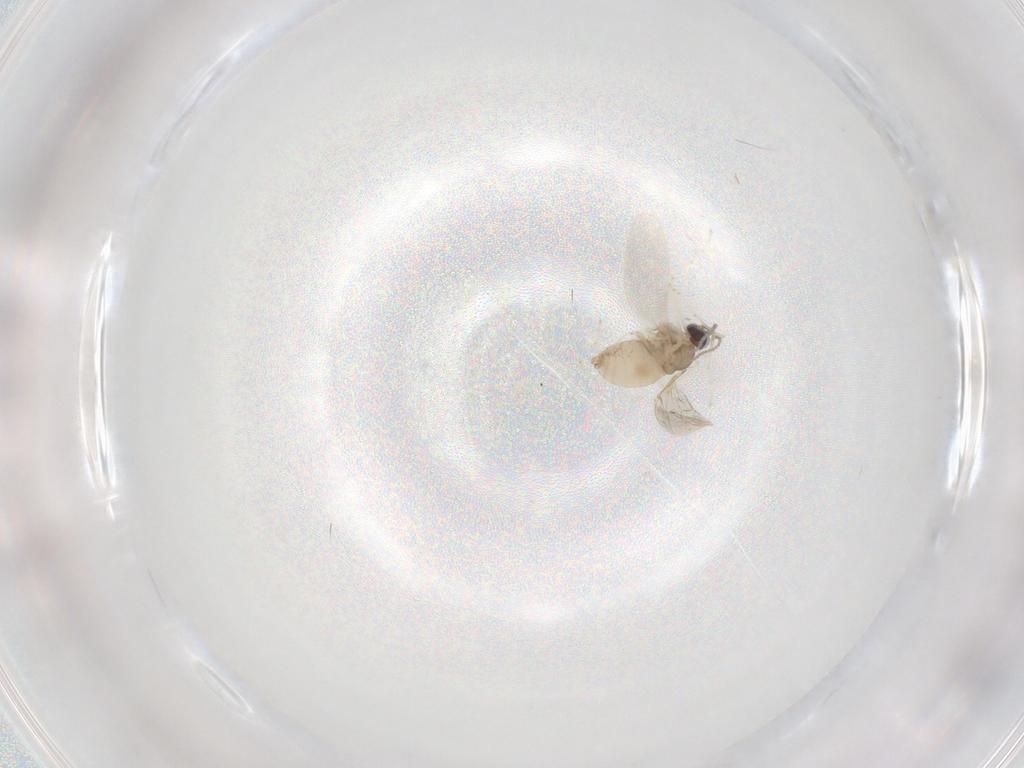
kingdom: Animalia
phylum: Arthropoda
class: Insecta
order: Diptera
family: Cecidomyiidae
